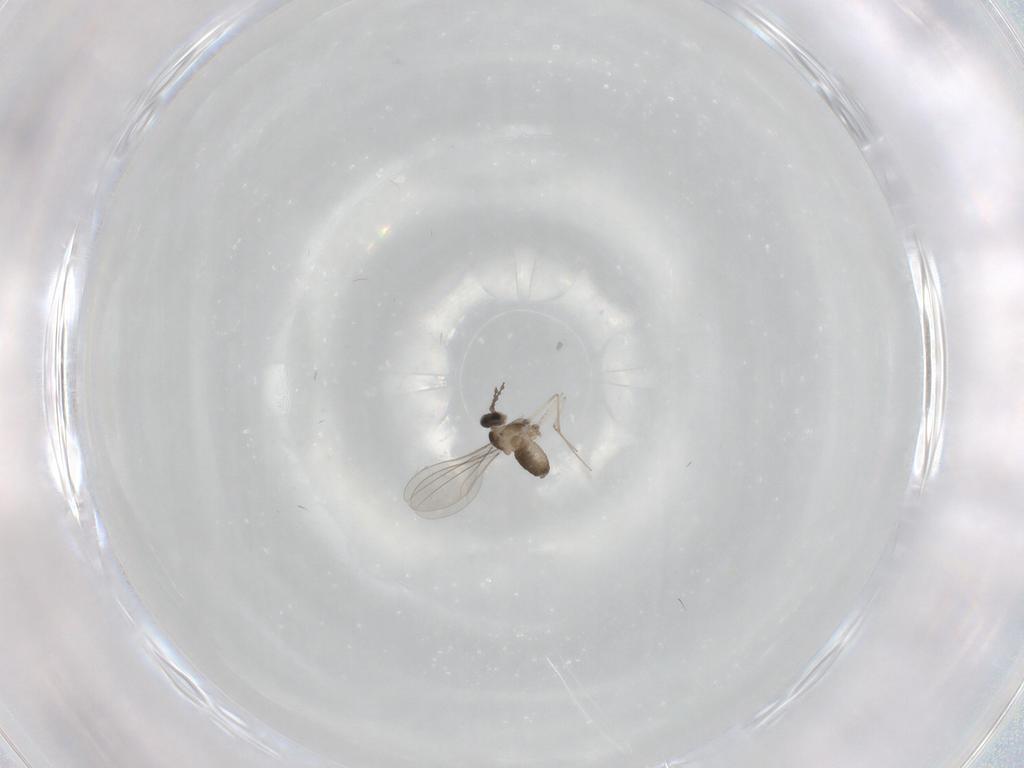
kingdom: Animalia
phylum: Arthropoda
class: Insecta
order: Diptera
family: Cecidomyiidae
